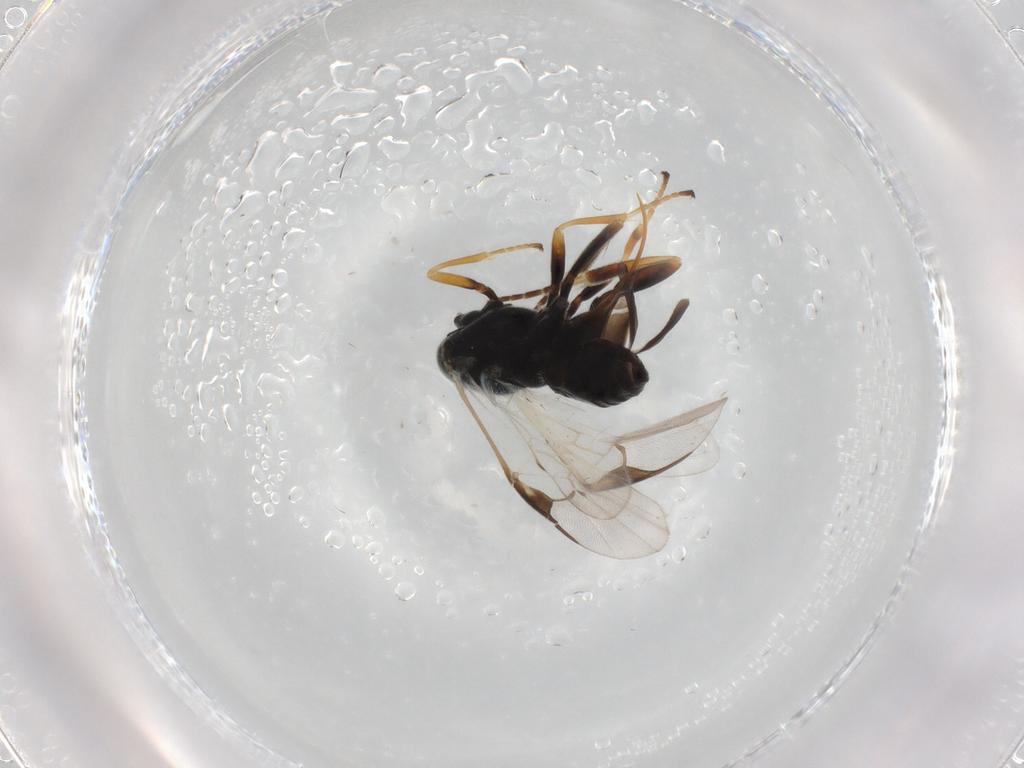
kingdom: Animalia
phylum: Arthropoda
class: Insecta
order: Hymenoptera
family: Braconidae
